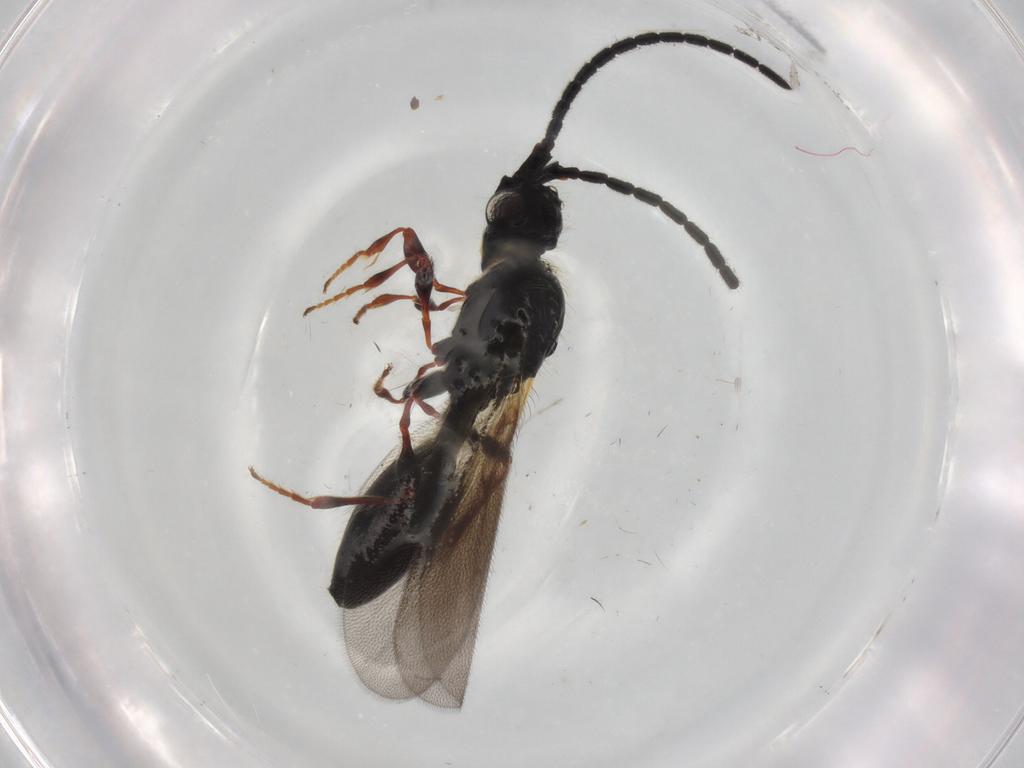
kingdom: Animalia
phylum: Arthropoda
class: Insecta
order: Hymenoptera
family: Diapriidae
